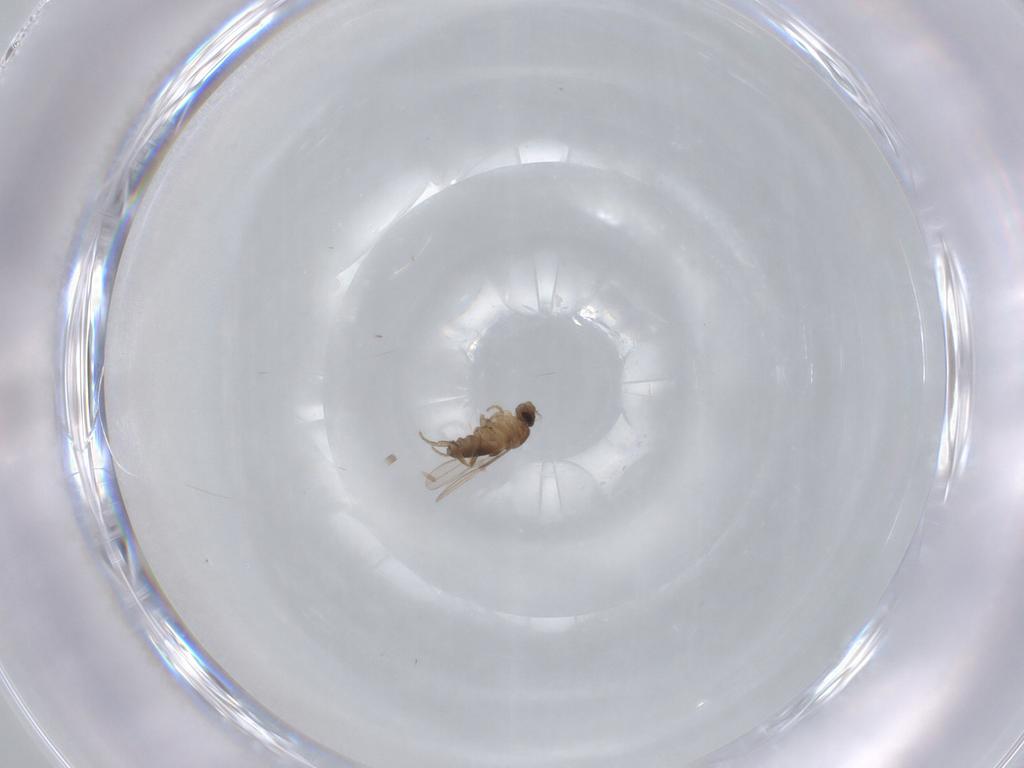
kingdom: Animalia
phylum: Arthropoda
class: Insecta
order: Diptera
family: Phoridae
